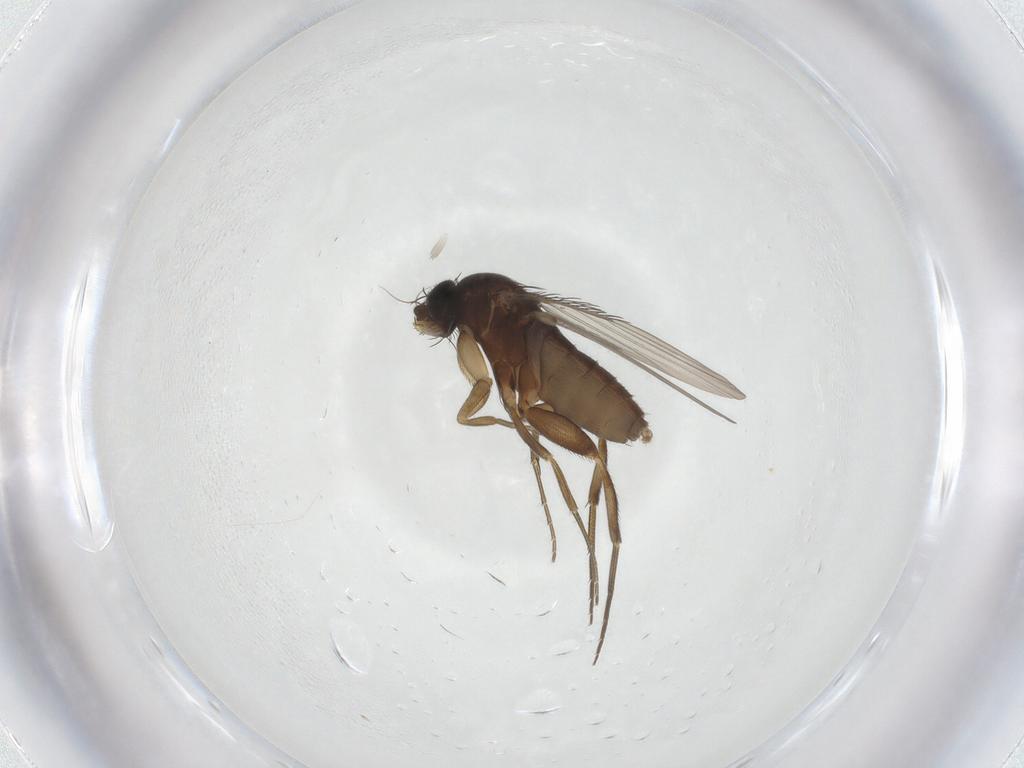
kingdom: Animalia
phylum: Arthropoda
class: Insecta
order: Diptera
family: Phoridae
